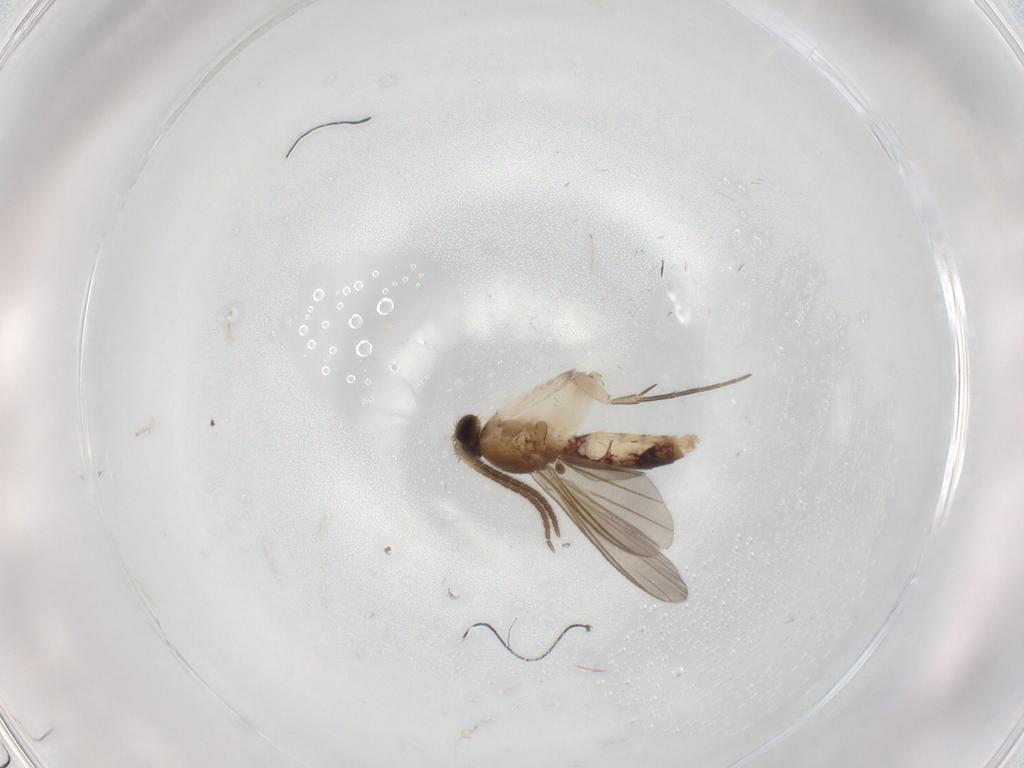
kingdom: Animalia
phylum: Arthropoda
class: Insecta
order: Diptera
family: Mycetophilidae
